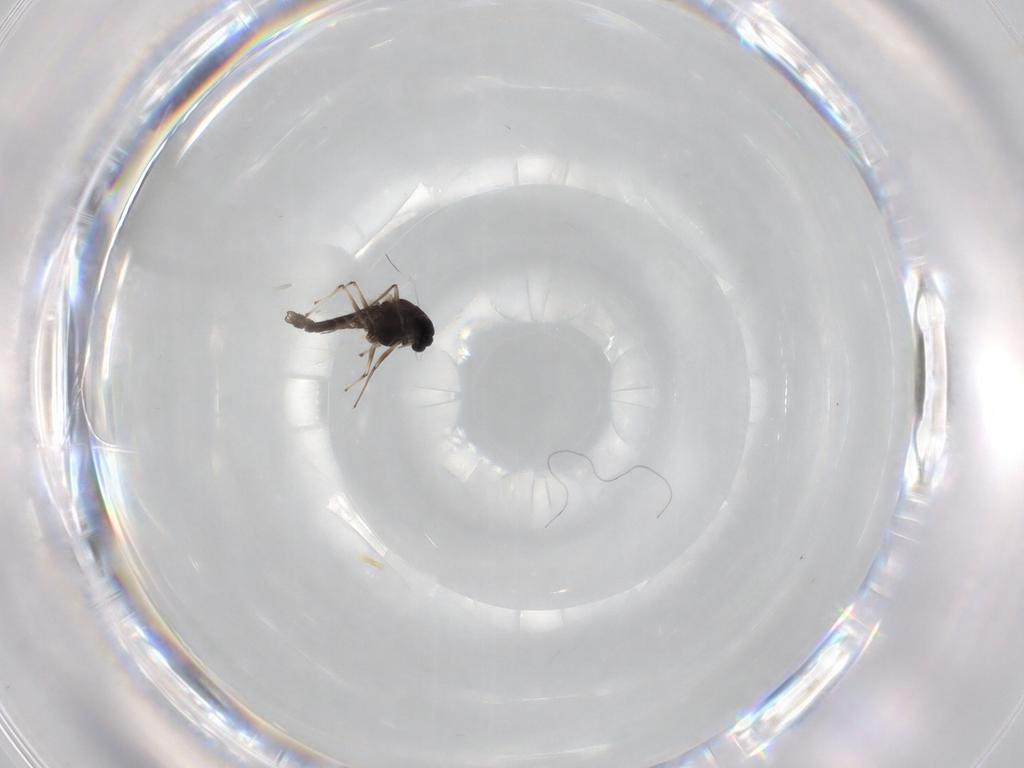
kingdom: Animalia
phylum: Arthropoda
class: Insecta
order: Diptera
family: Chironomidae
